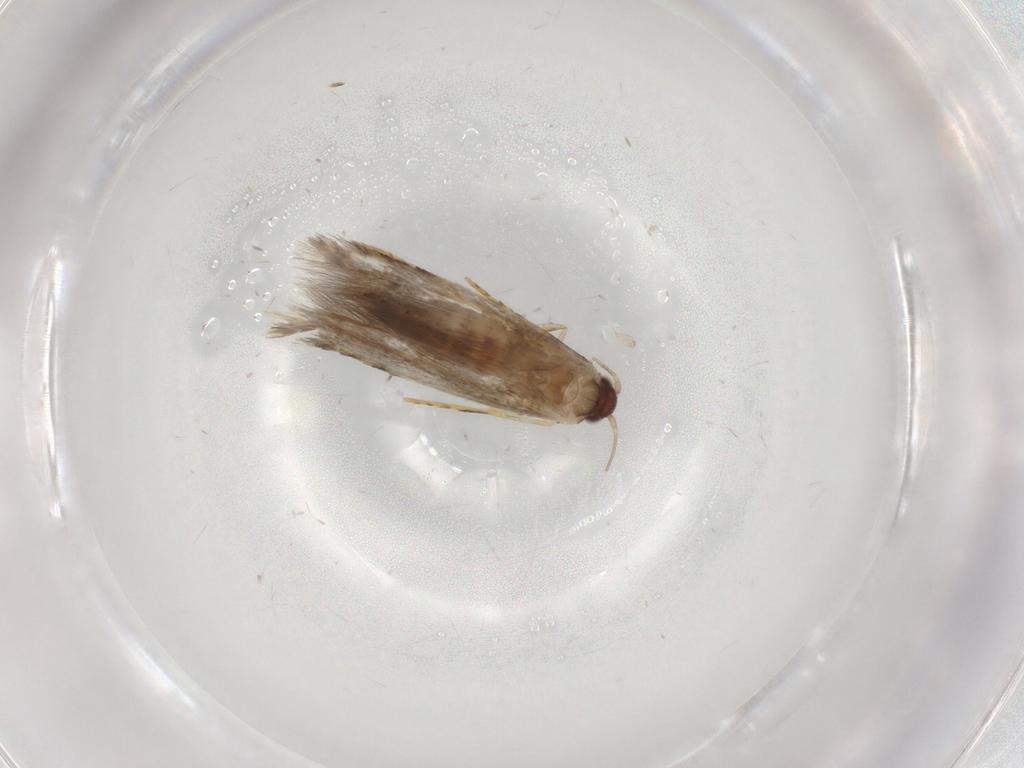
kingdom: Animalia
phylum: Arthropoda
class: Insecta
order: Lepidoptera
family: Tineidae
